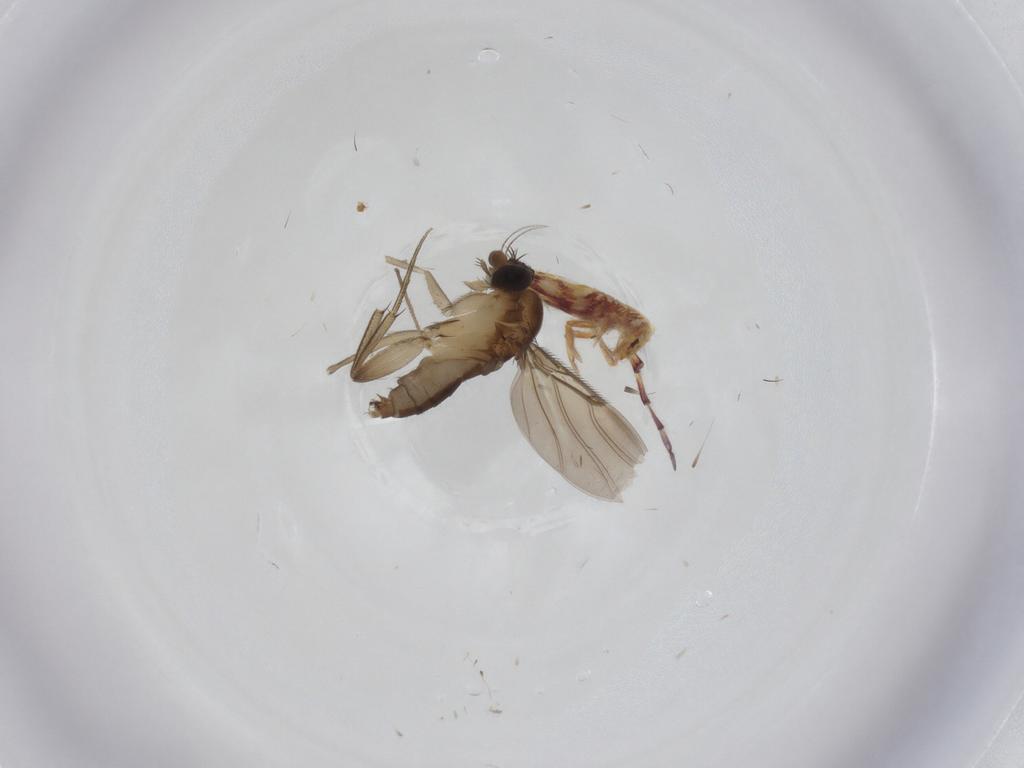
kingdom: Animalia
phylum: Arthropoda
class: Insecta
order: Diptera
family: Phoridae
